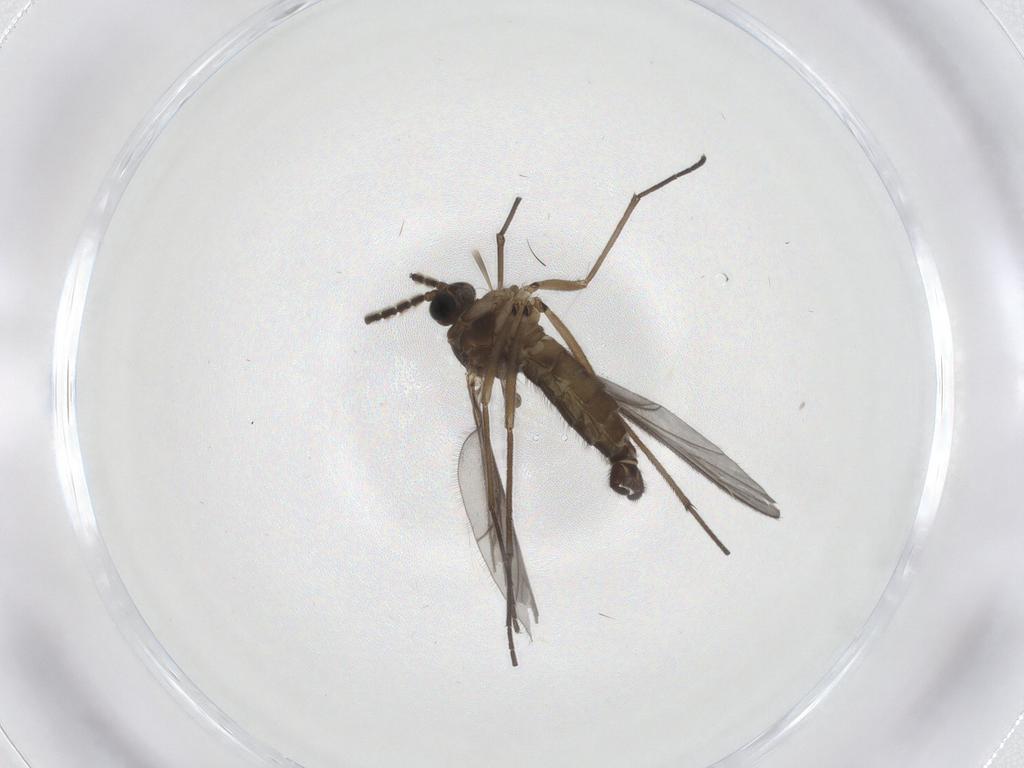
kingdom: Animalia
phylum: Arthropoda
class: Insecta
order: Diptera
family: Sciaridae
